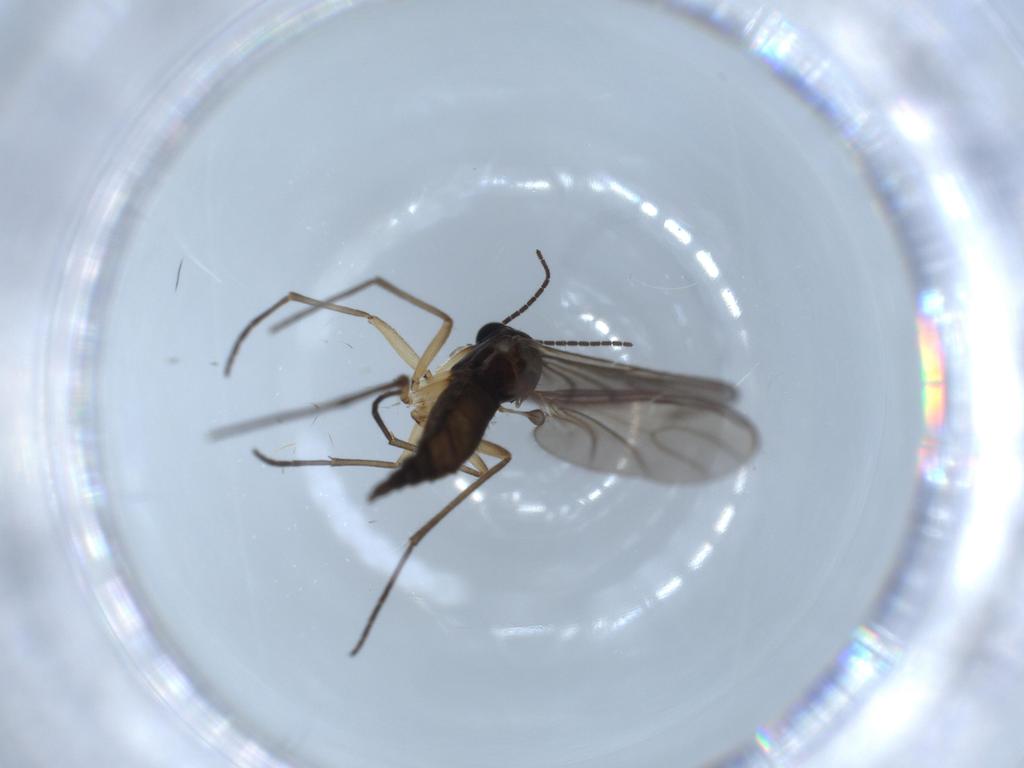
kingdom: Animalia
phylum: Arthropoda
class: Insecta
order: Diptera
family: Sciaridae
